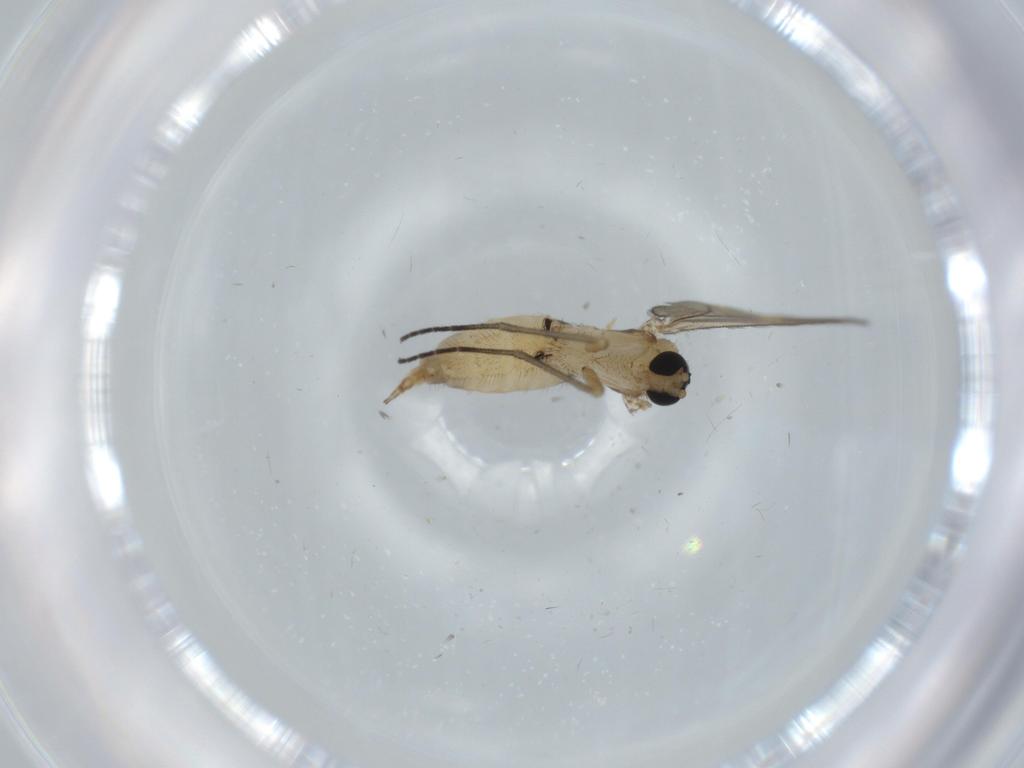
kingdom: Animalia
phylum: Arthropoda
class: Insecta
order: Diptera
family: Sciaridae
